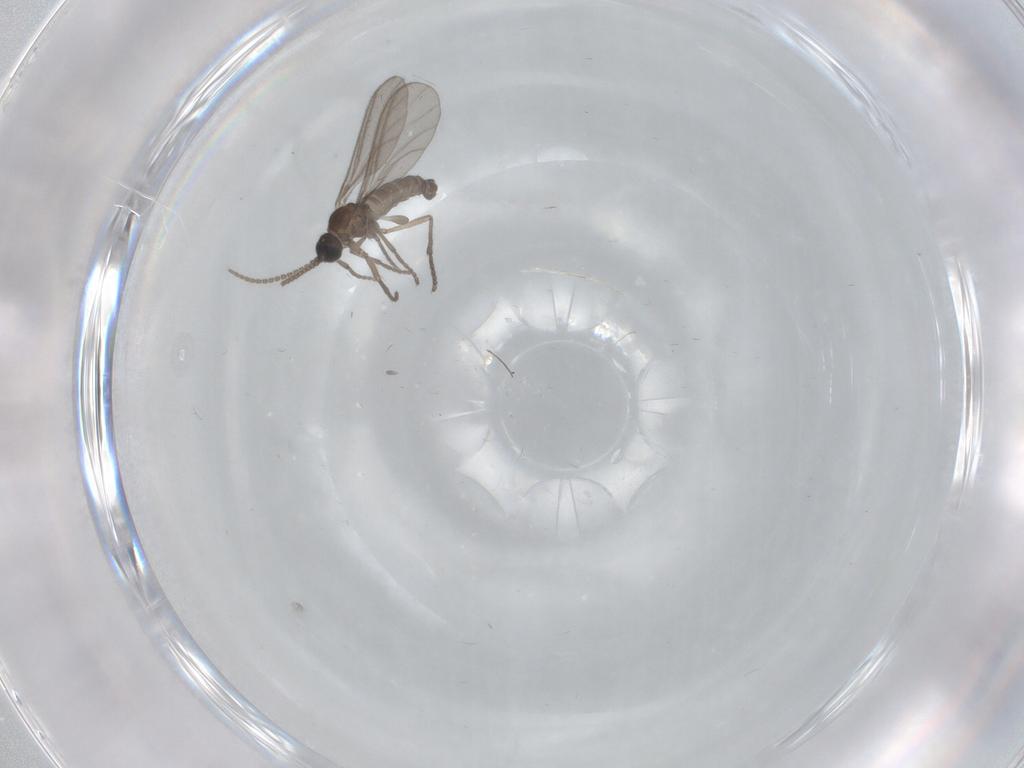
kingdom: Animalia
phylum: Arthropoda
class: Insecta
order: Diptera
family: Sciaridae
